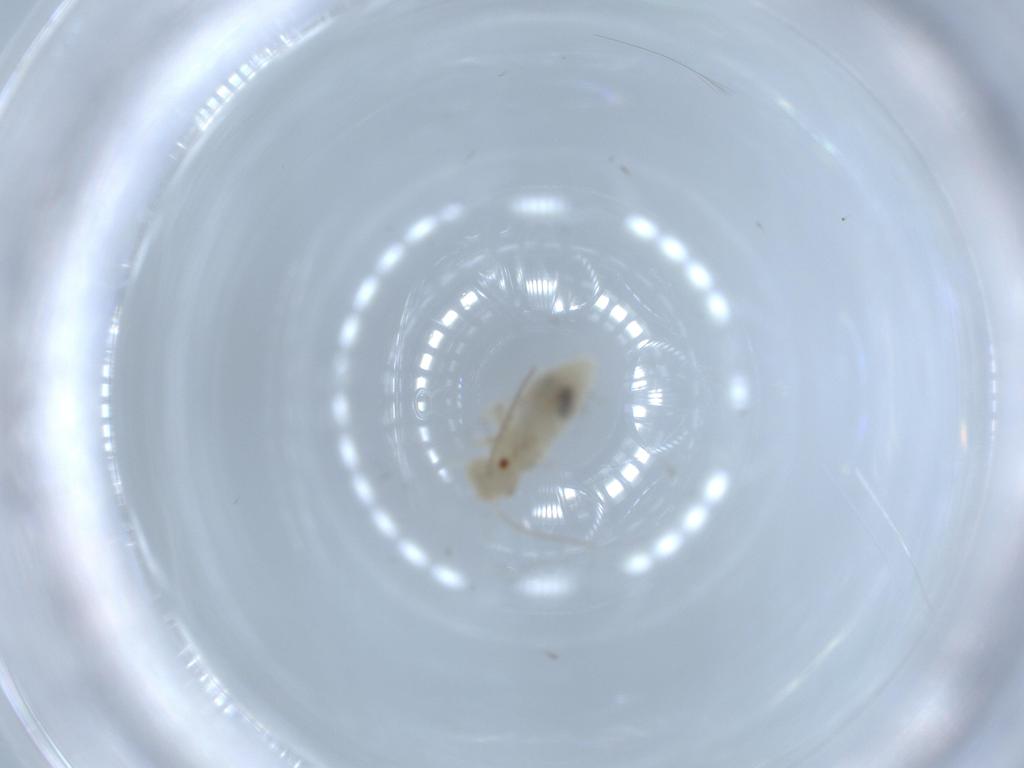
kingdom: Animalia
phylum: Arthropoda
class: Insecta
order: Psocodea
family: Caeciliusidae
